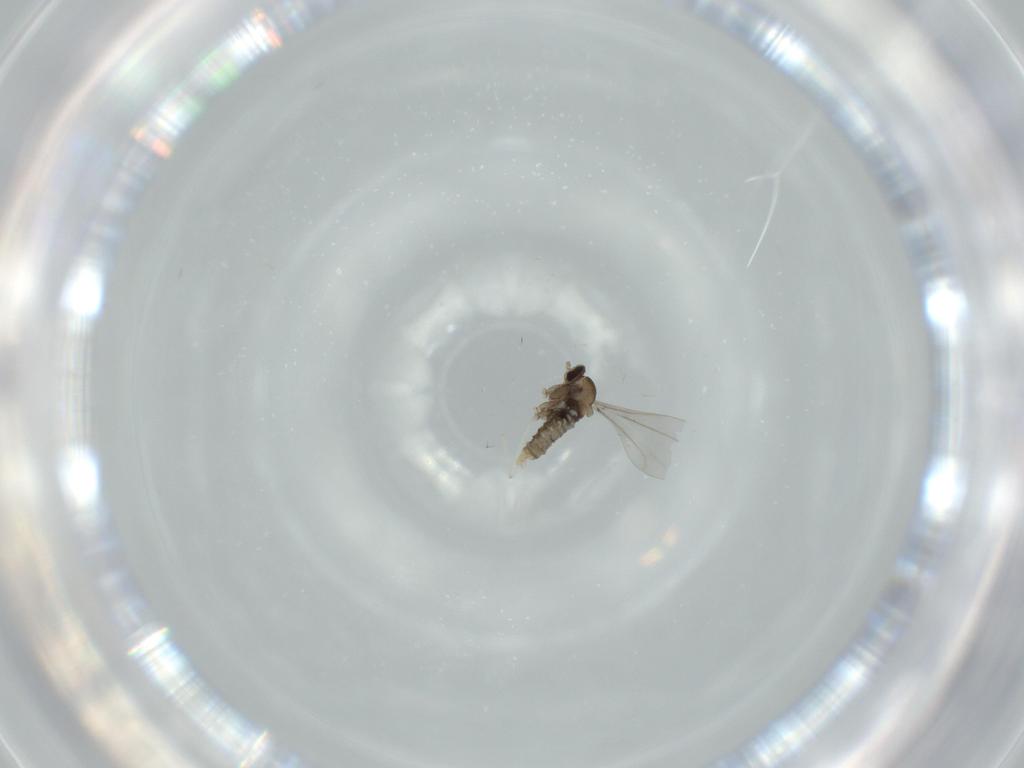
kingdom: Animalia
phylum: Arthropoda
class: Insecta
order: Diptera
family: Cecidomyiidae
